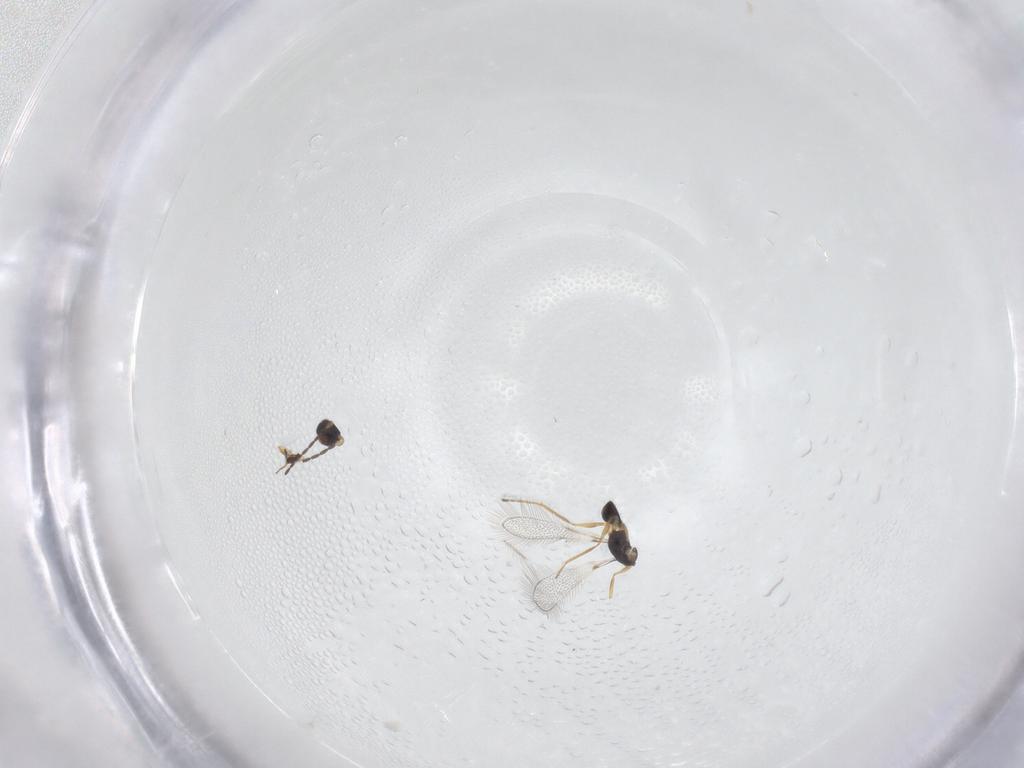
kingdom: Animalia
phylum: Arthropoda
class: Insecta
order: Hymenoptera
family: Mymaridae
